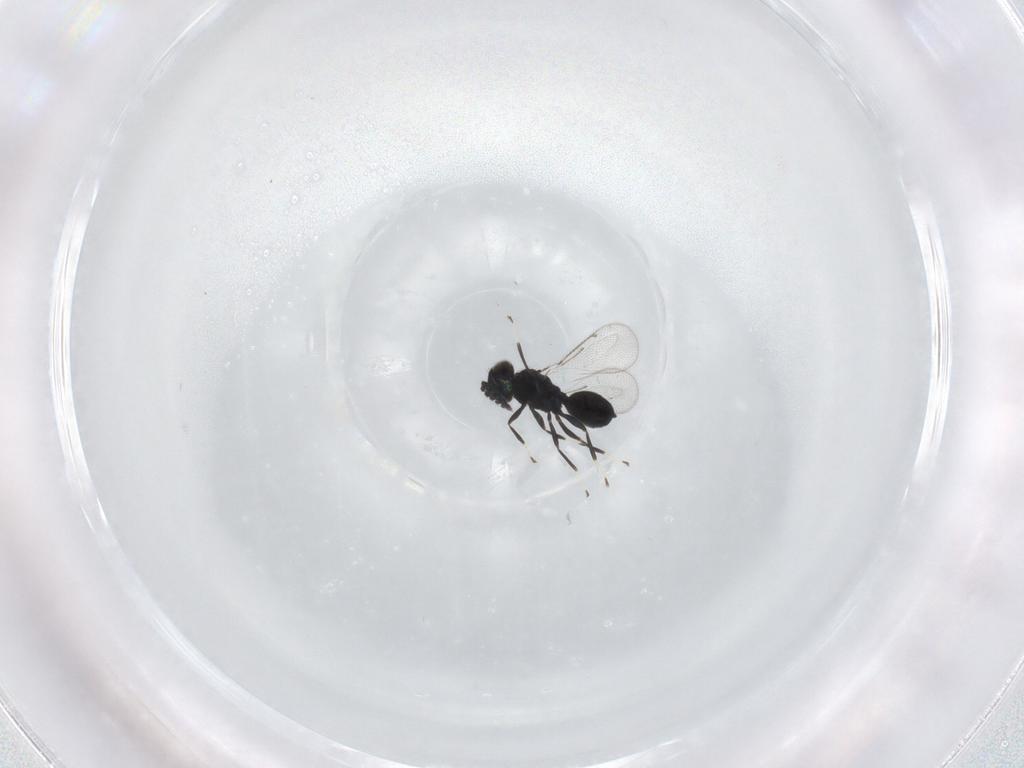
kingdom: Animalia
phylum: Arthropoda
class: Insecta
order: Hymenoptera
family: Eulophidae
